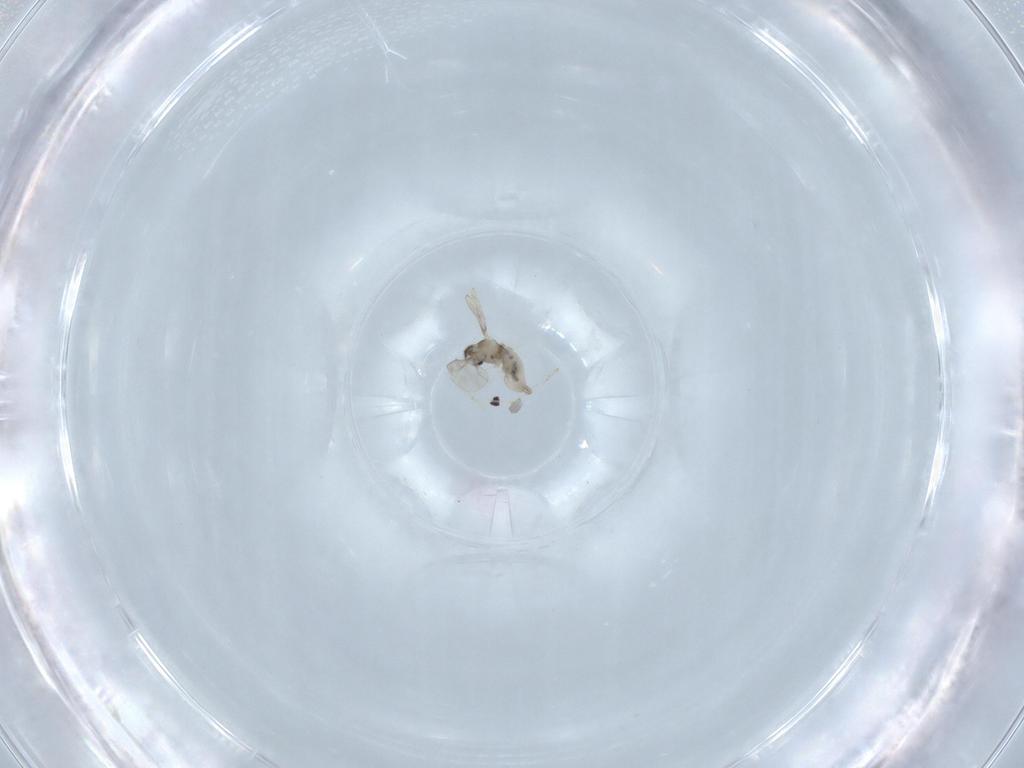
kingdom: Animalia
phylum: Arthropoda
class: Insecta
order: Diptera
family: Cecidomyiidae
